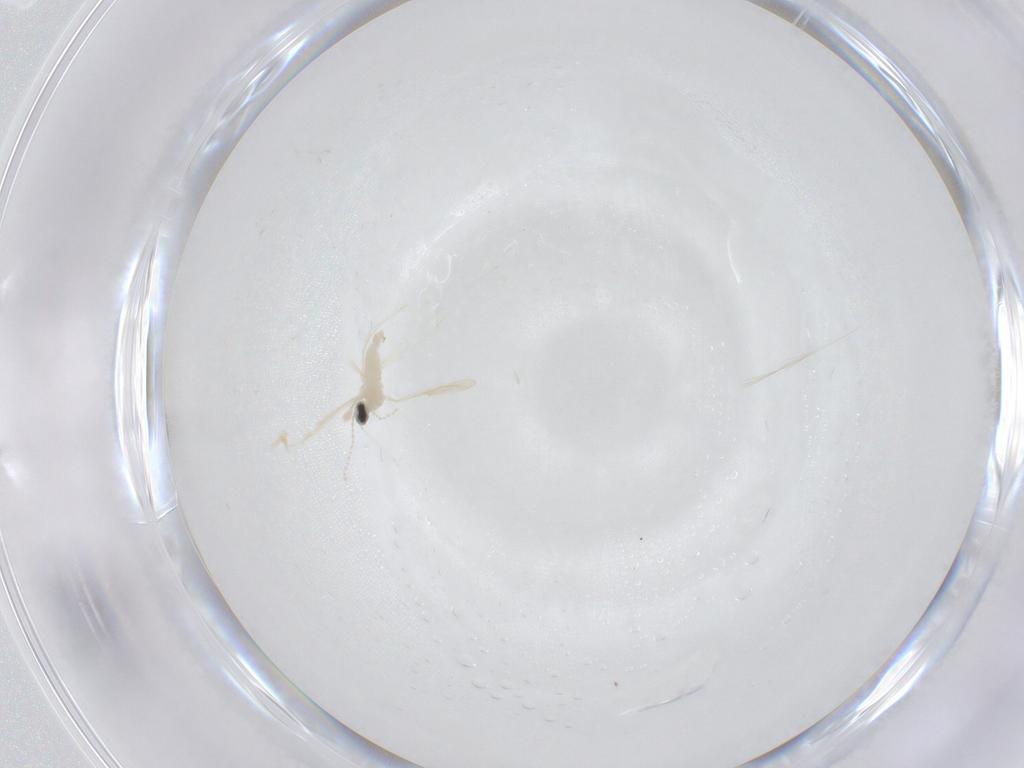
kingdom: Animalia
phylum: Arthropoda
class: Insecta
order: Diptera
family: Cecidomyiidae
